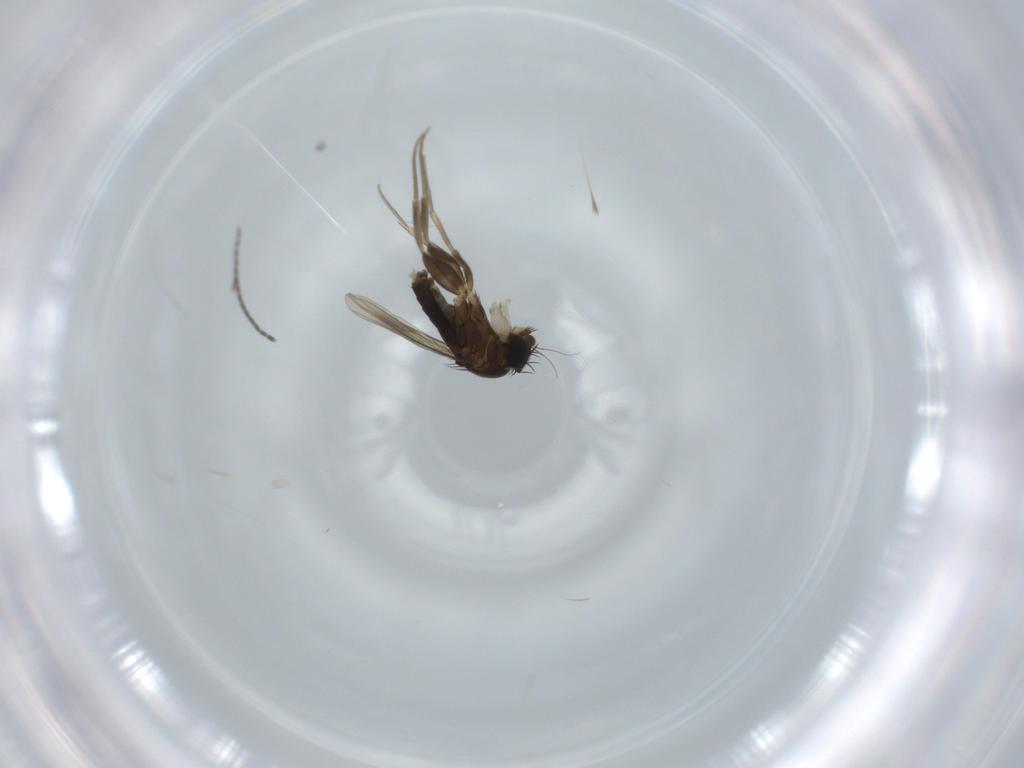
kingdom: Animalia
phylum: Arthropoda
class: Insecta
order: Diptera
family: Phoridae
